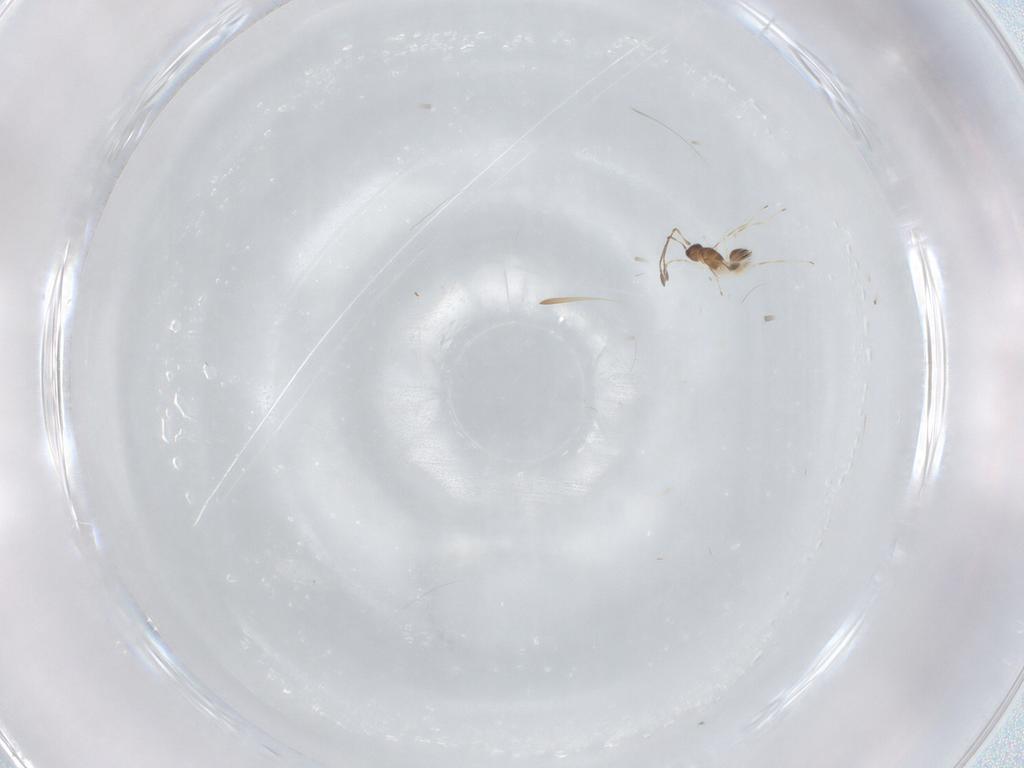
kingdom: Animalia
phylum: Arthropoda
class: Insecta
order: Hymenoptera
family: Mymaridae
